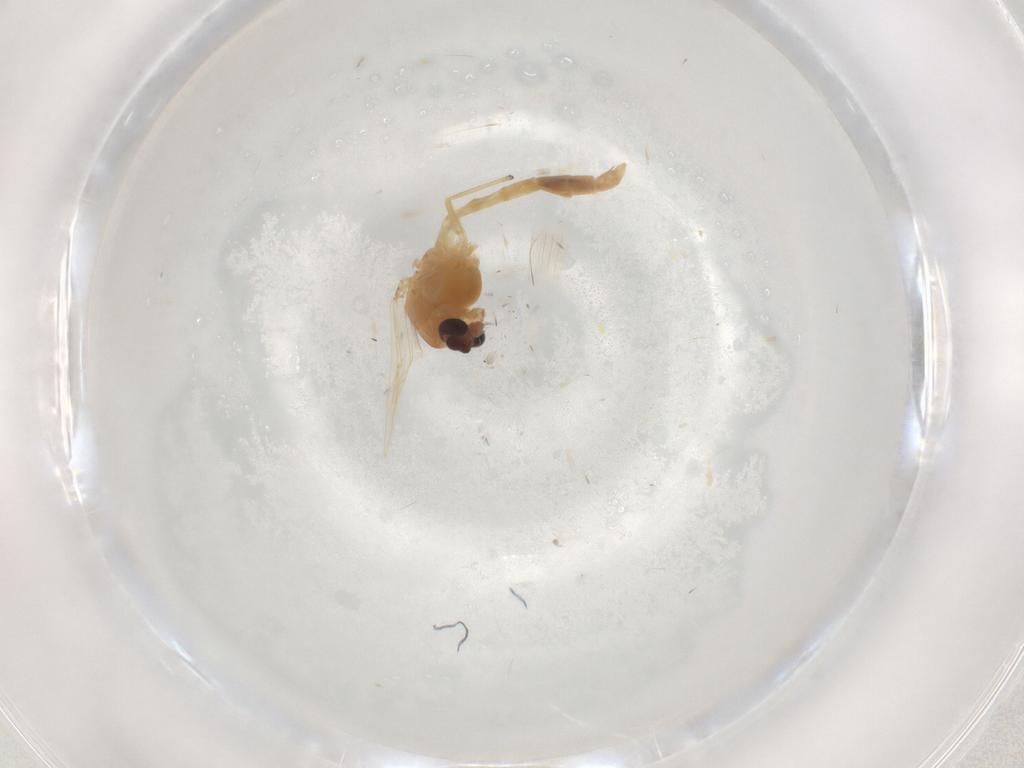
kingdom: Animalia
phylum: Arthropoda
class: Insecta
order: Diptera
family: Chironomidae
